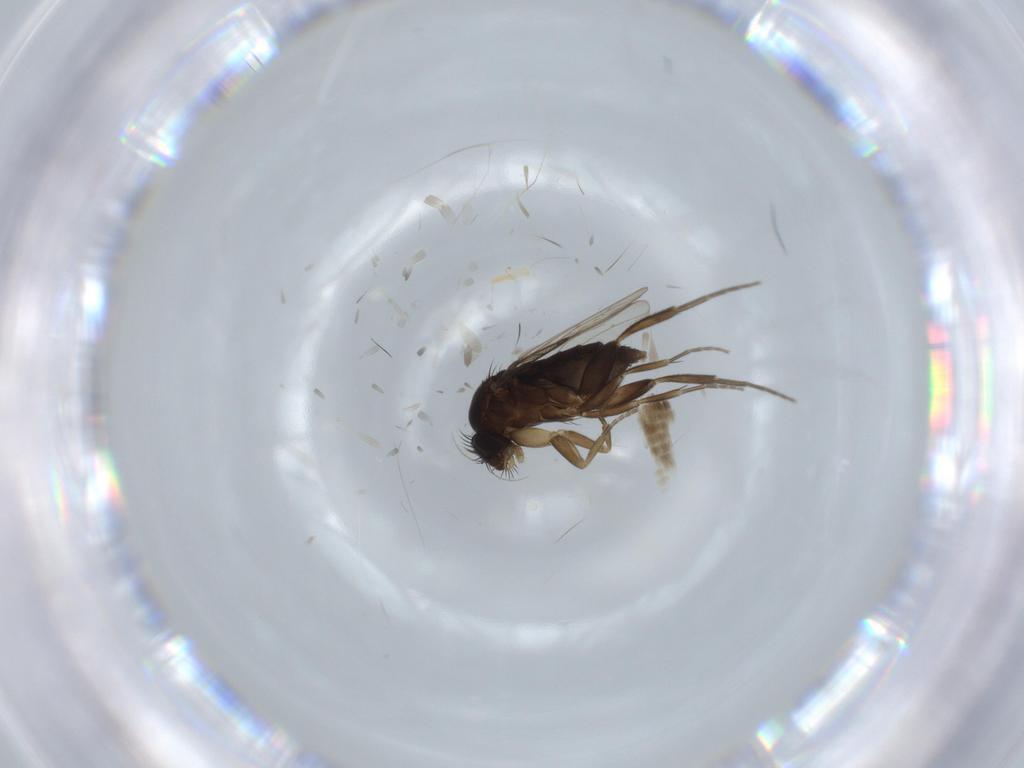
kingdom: Animalia
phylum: Arthropoda
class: Insecta
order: Diptera
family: Phoridae
